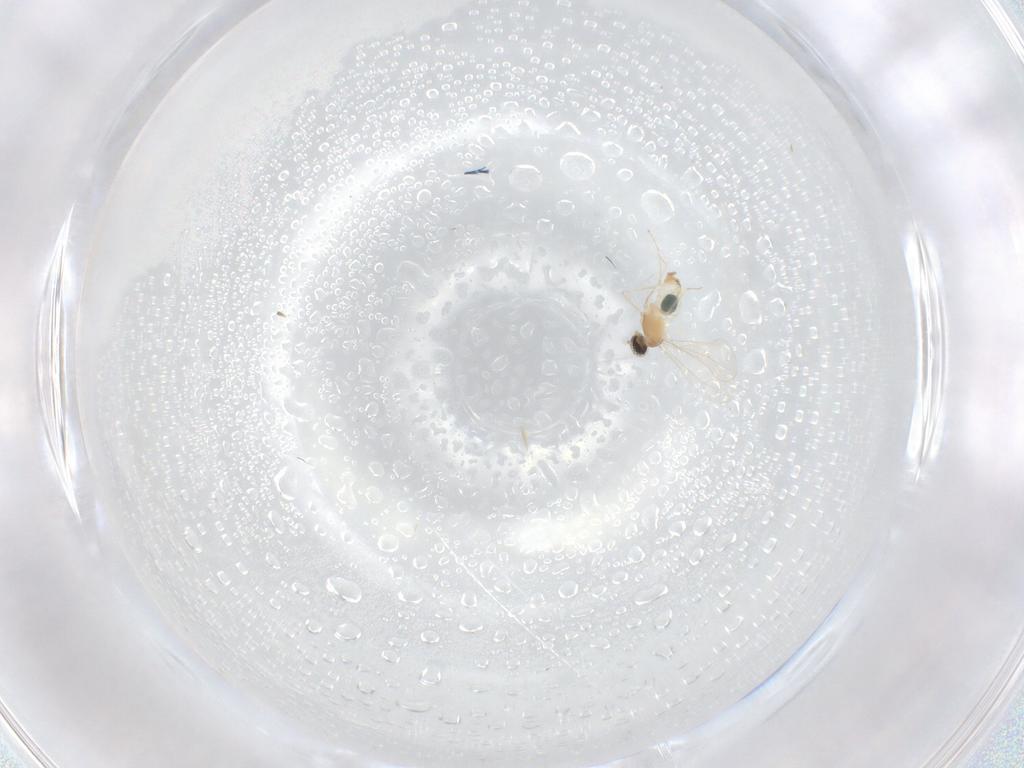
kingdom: Animalia
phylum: Arthropoda
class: Insecta
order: Diptera
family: Cecidomyiidae
